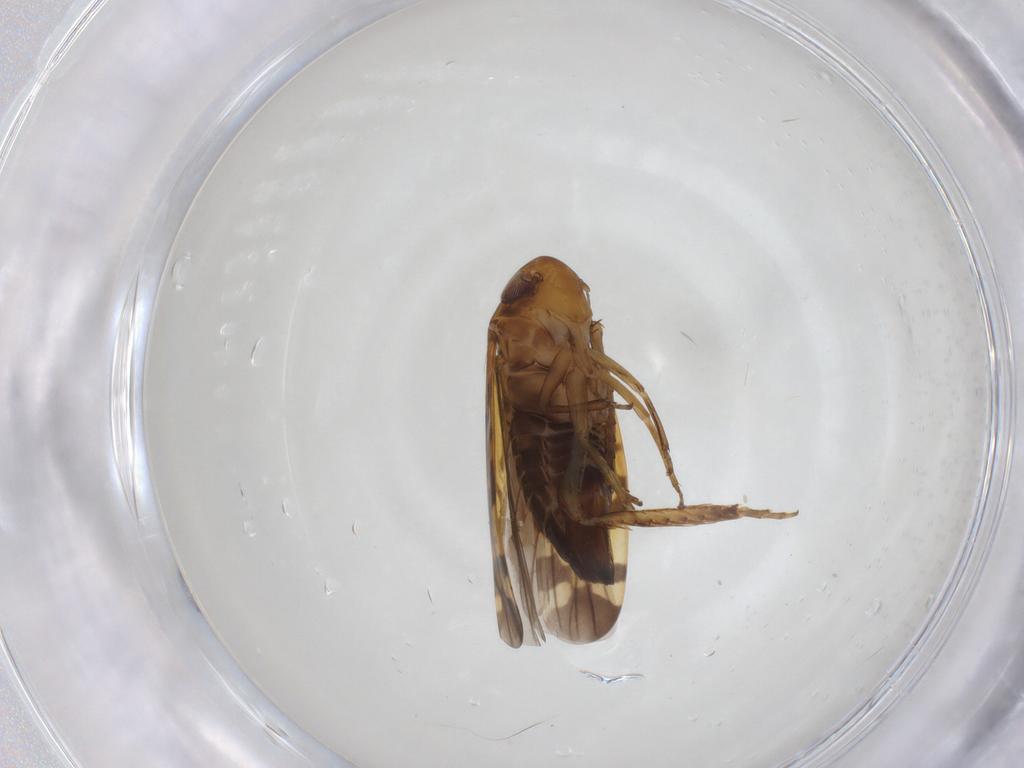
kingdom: Animalia
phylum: Arthropoda
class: Insecta
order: Hemiptera
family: Cicadellidae
